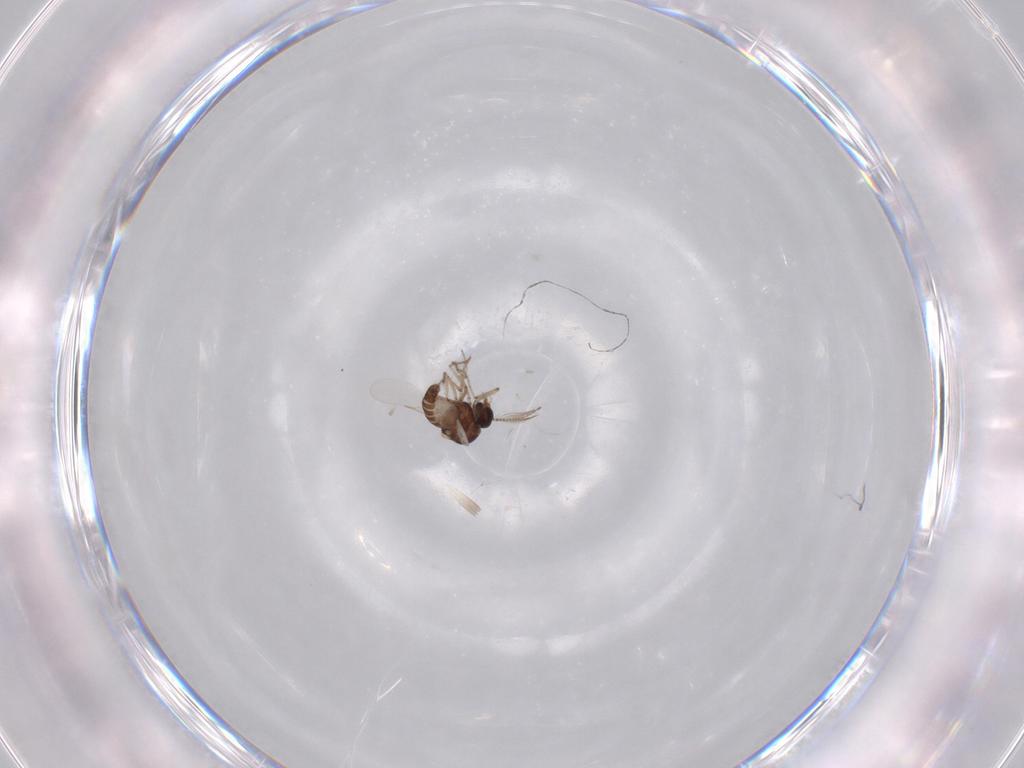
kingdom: Animalia
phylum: Arthropoda
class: Insecta
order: Diptera
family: Ceratopogonidae
